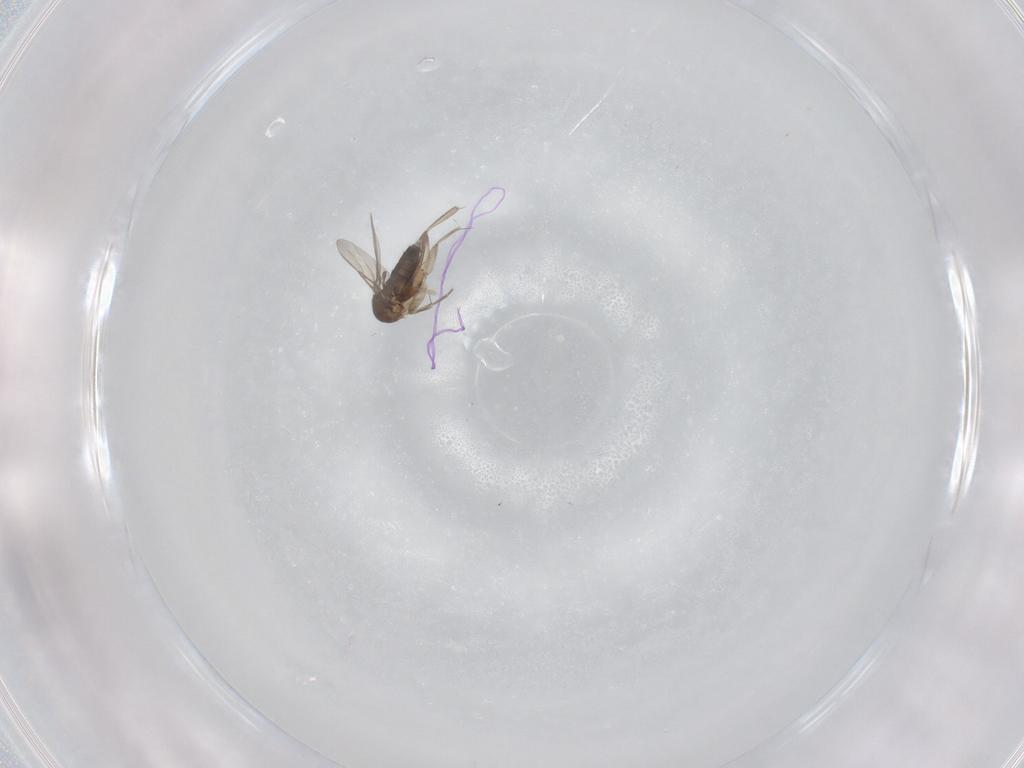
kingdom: Animalia
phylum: Arthropoda
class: Insecta
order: Diptera
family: Phoridae
